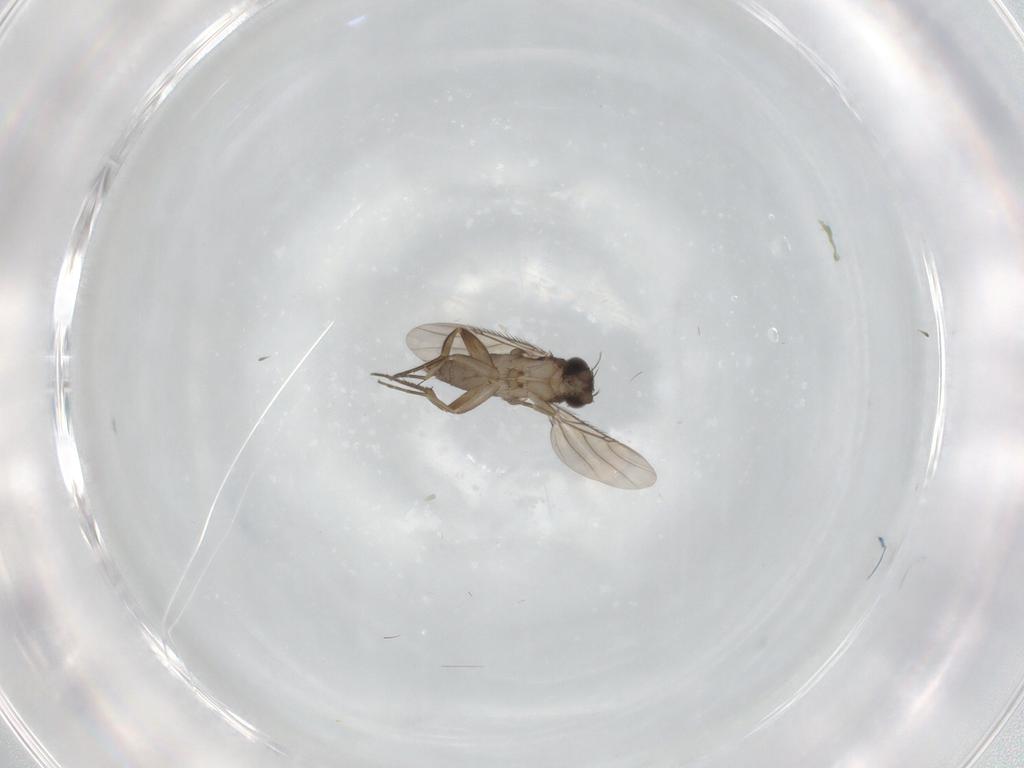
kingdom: Animalia
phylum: Arthropoda
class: Insecta
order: Diptera
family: Phoridae
